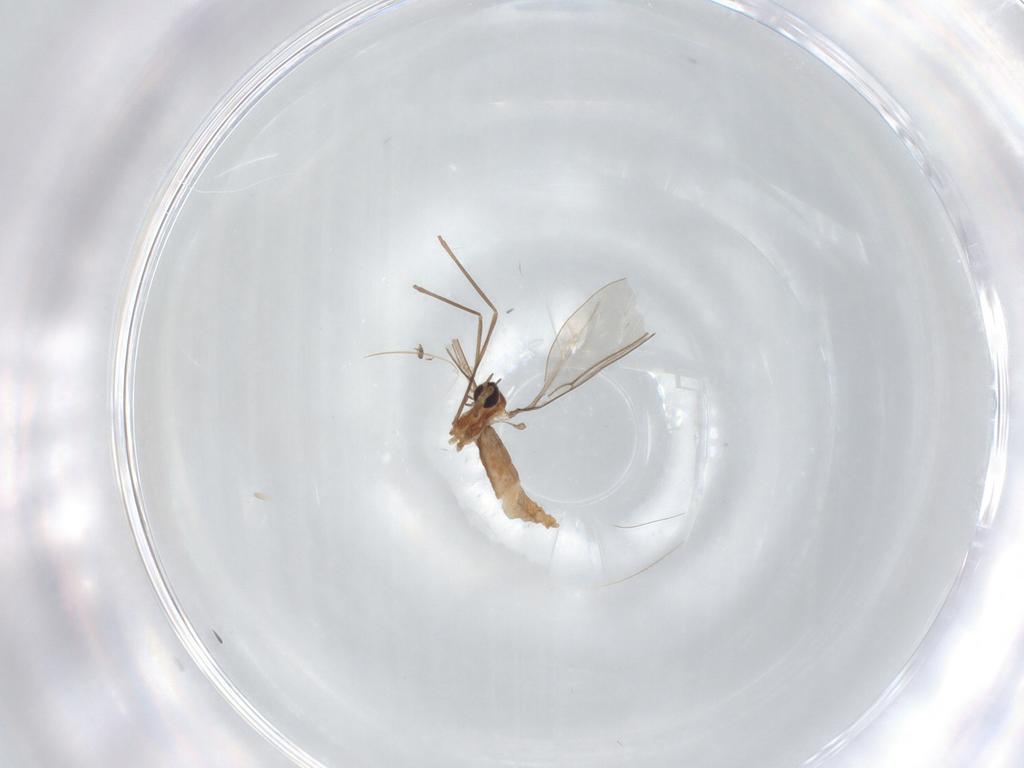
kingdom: Animalia
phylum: Arthropoda
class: Insecta
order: Diptera
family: Cecidomyiidae
